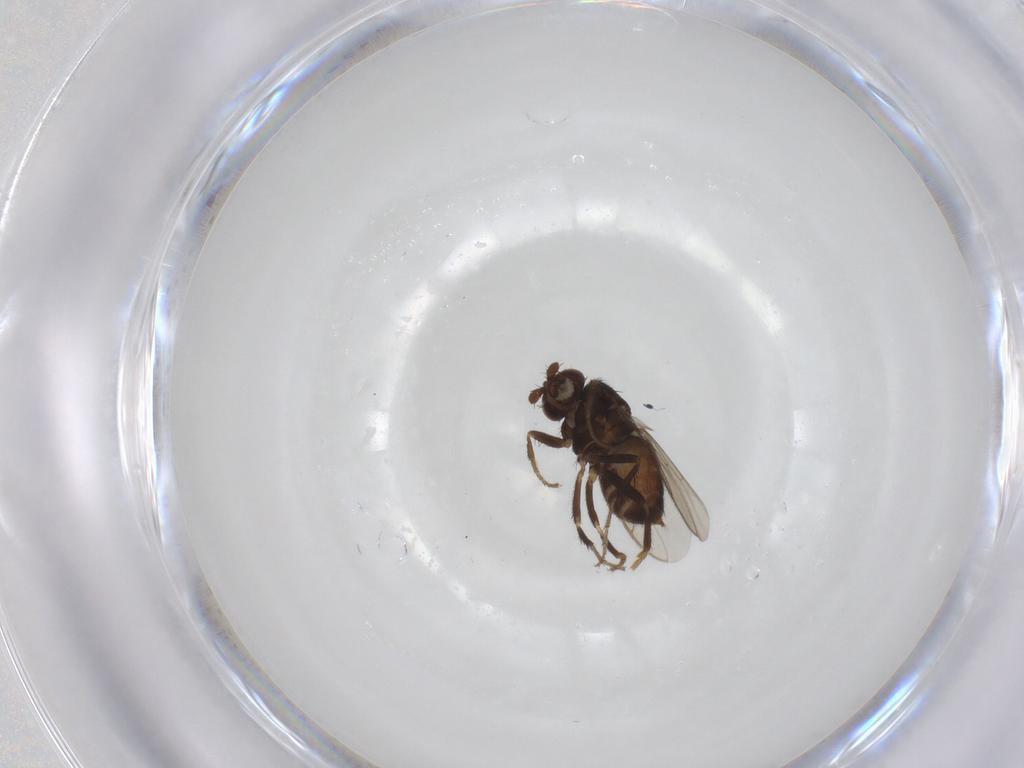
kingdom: Animalia
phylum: Arthropoda
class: Insecta
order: Diptera
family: Sphaeroceridae
